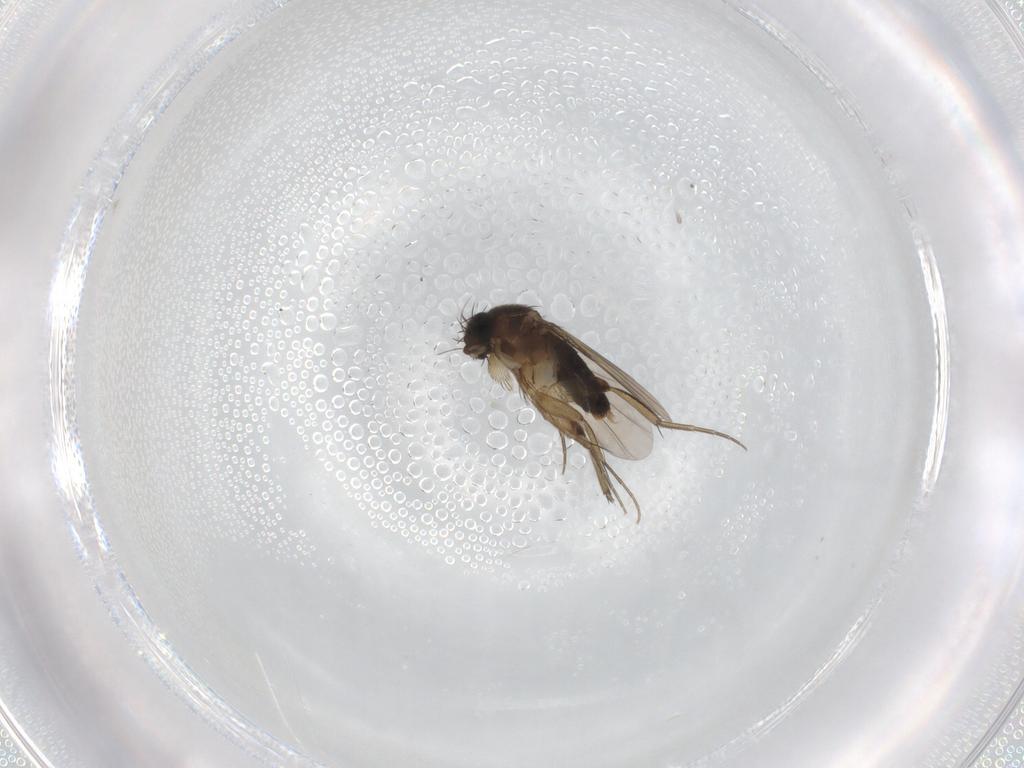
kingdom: Animalia
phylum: Arthropoda
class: Insecta
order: Diptera
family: Phoridae
